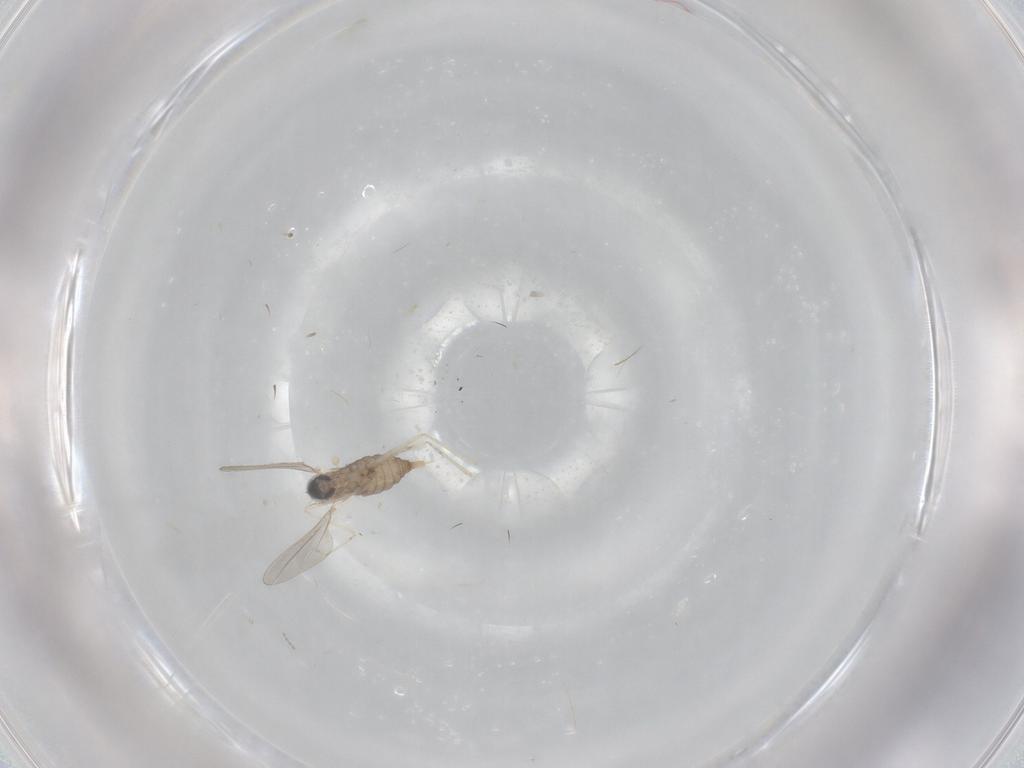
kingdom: Animalia
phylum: Arthropoda
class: Insecta
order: Diptera
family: Cecidomyiidae
